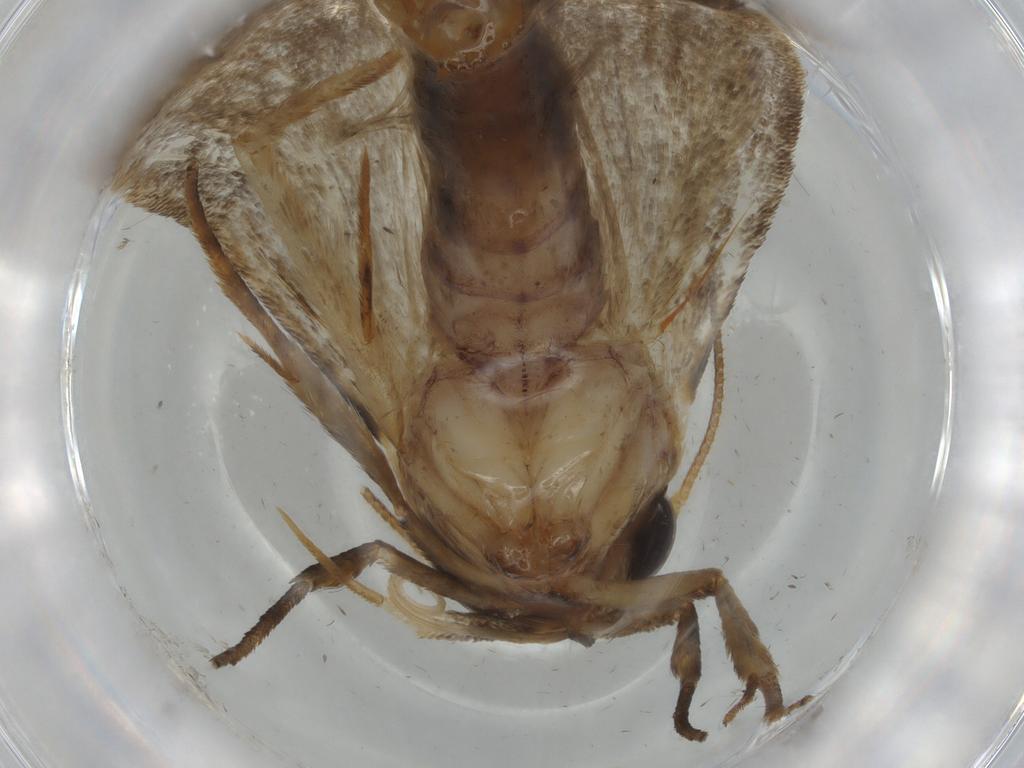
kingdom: Animalia
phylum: Arthropoda
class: Insecta
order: Lepidoptera
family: Oecophoridae
